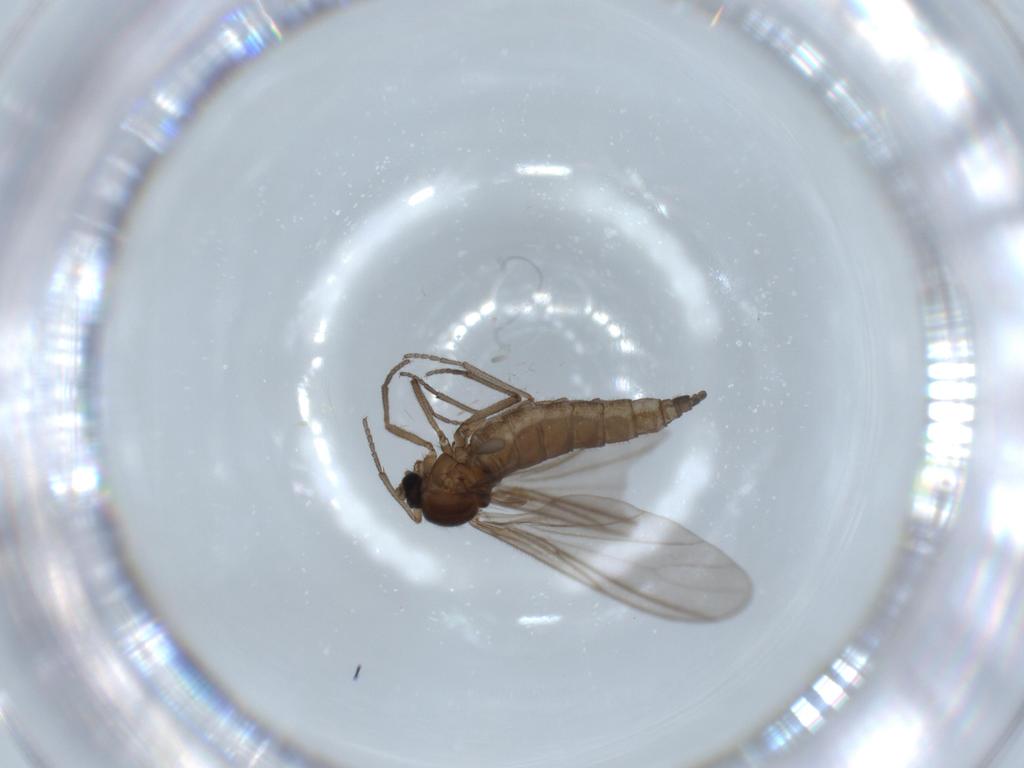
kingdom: Animalia
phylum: Arthropoda
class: Insecta
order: Diptera
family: Sciaridae
